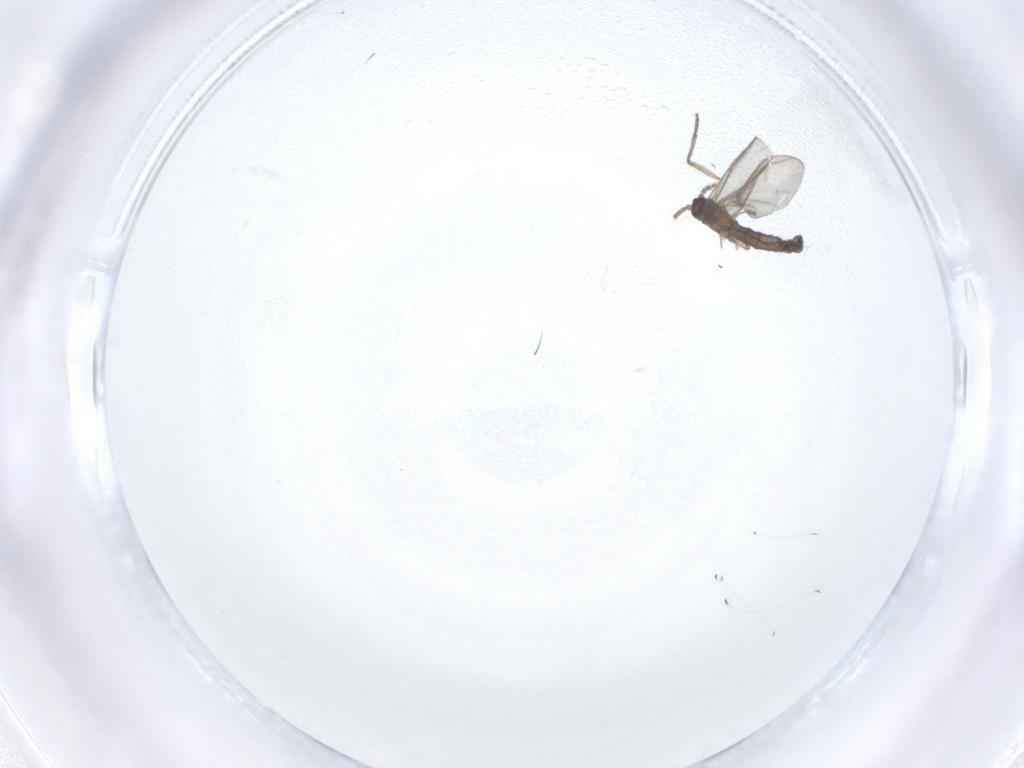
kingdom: Animalia
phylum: Arthropoda
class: Insecta
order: Diptera
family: Sciaridae
